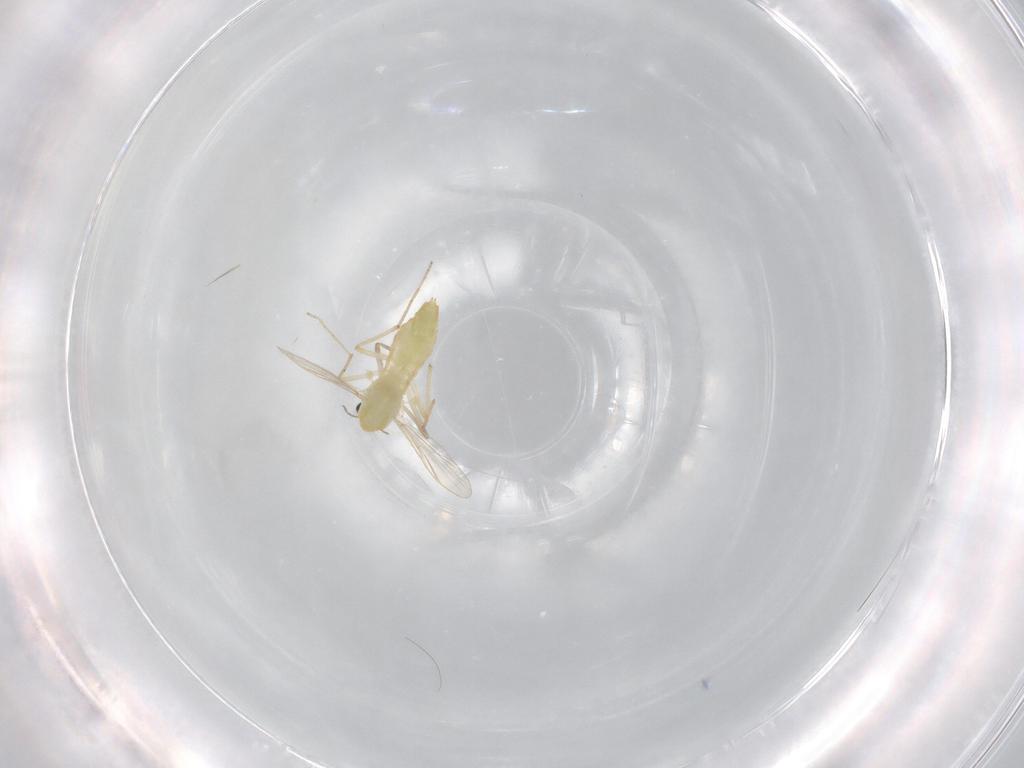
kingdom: Animalia
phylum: Arthropoda
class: Insecta
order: Diptera
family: Chironomidae
